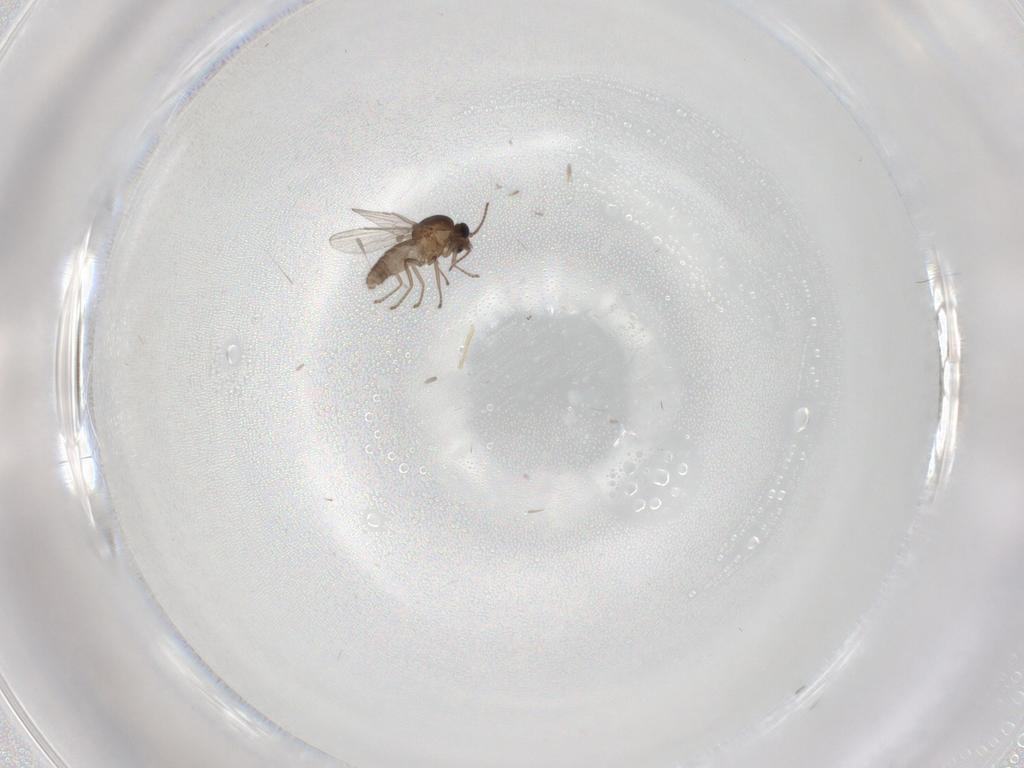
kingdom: Animalia
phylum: Arthropoda
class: Insecta
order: Diptera
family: Ceratopogonidae
